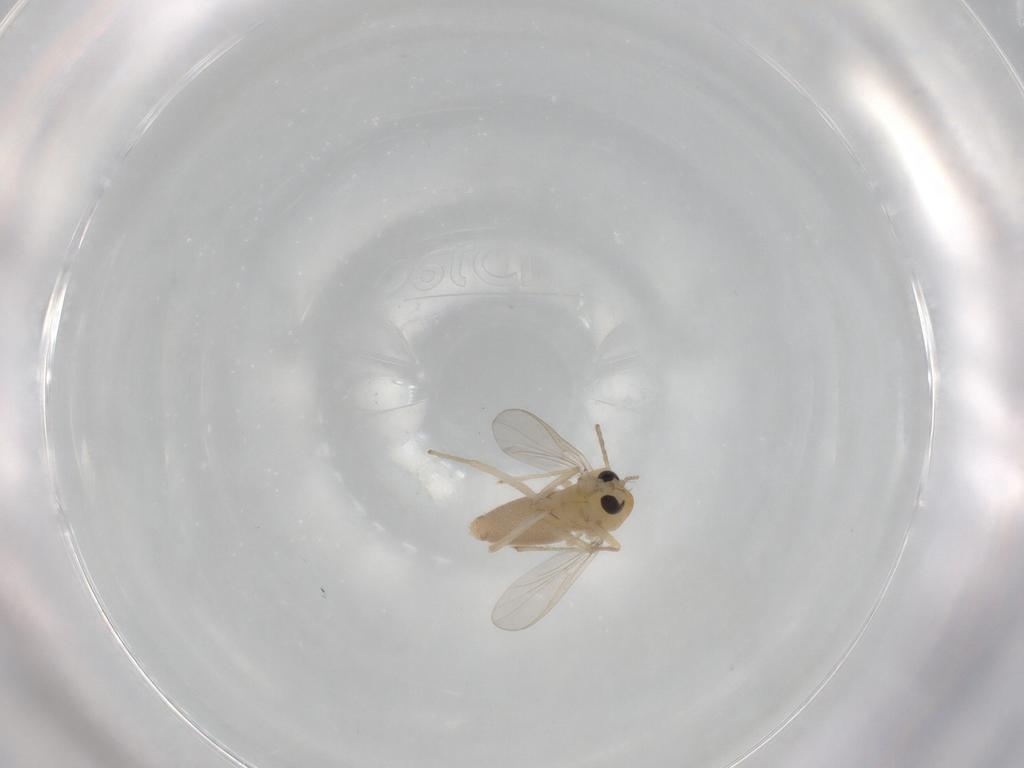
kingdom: Animalia
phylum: Arthropoda
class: Insecta
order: Diptera
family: Chironomidae
